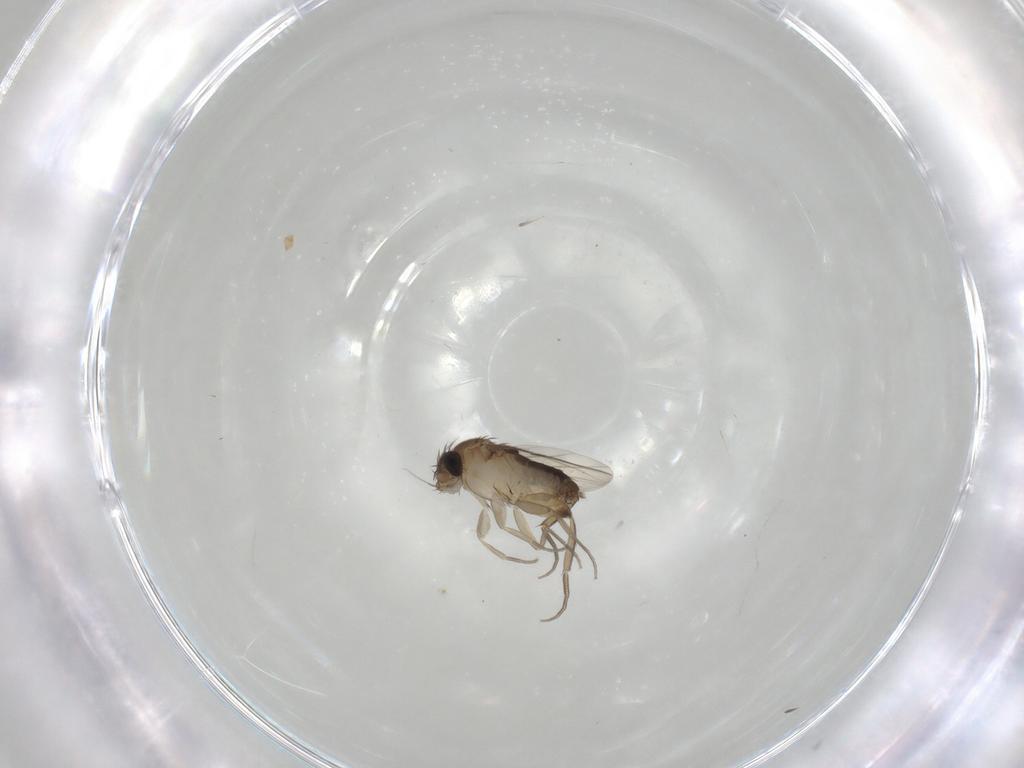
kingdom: Animalia
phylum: Arthropoda
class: Insecta
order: Diptera
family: Phoridae
